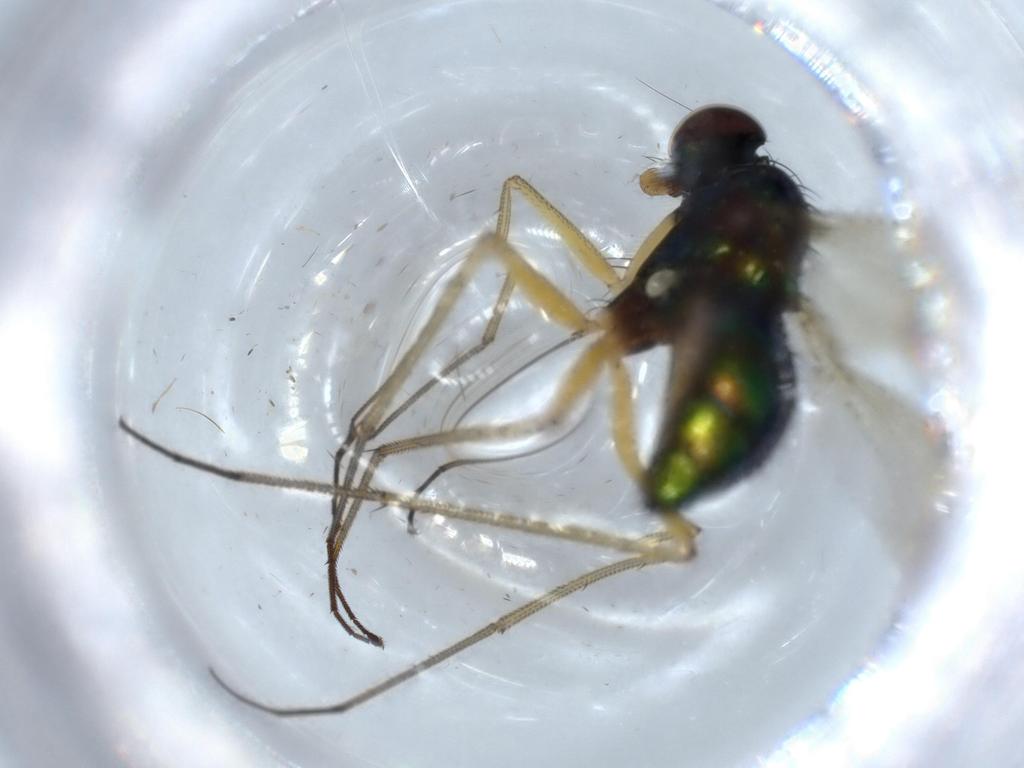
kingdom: Animalia
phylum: Arthropoda
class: Insecta
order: Diptera
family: Dolichopodidae
